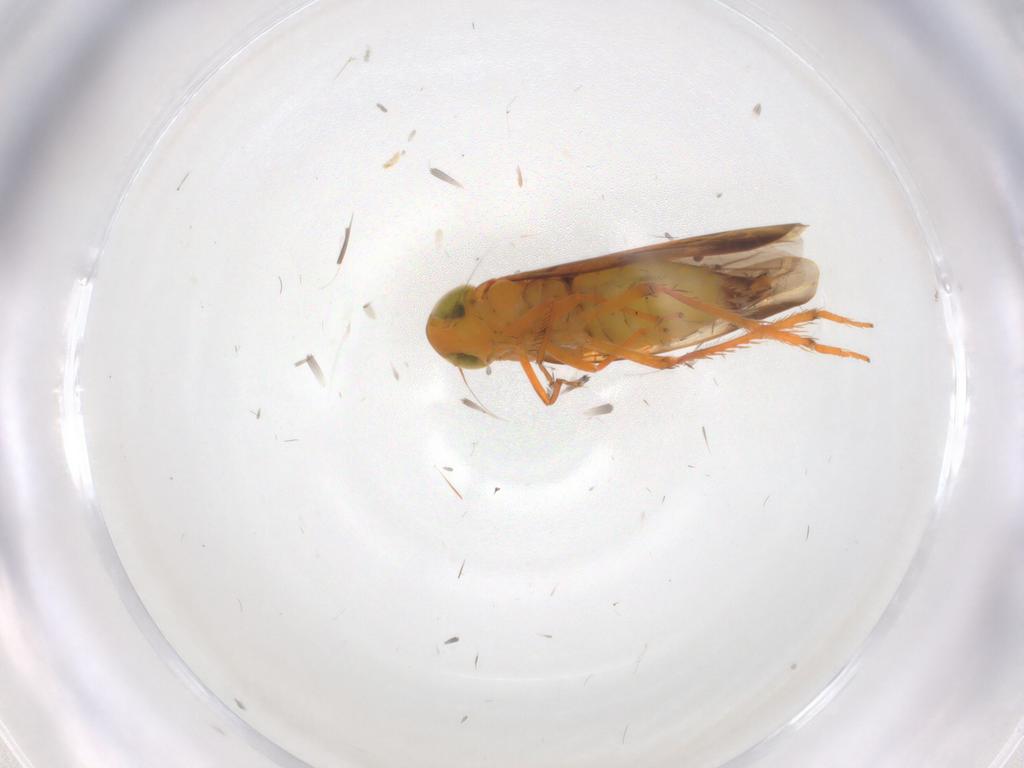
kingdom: Animalia
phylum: Arthropoda
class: Insecta
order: Hemiptera
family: Cicadellidae
